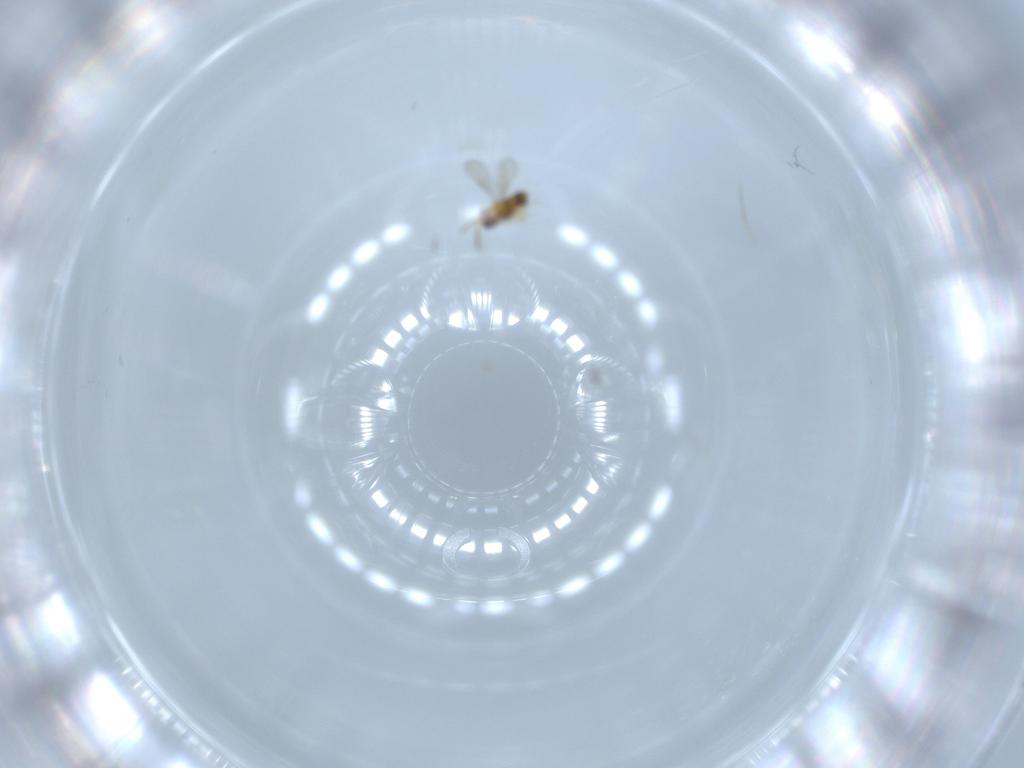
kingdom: Animalia
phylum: Arthropoda
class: Insecta
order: Hymenoptera
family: Aphelinidae
